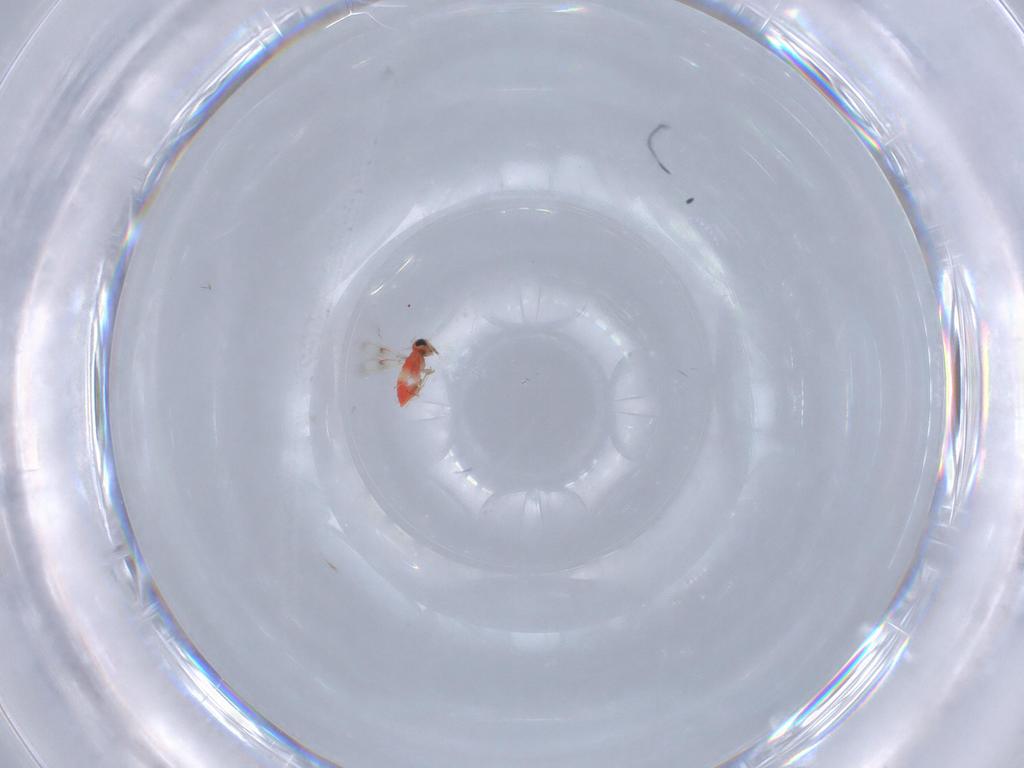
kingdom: Animalia
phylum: Arthropoda
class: Insecta
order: Hymenoptera
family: Trichogrammatidae
